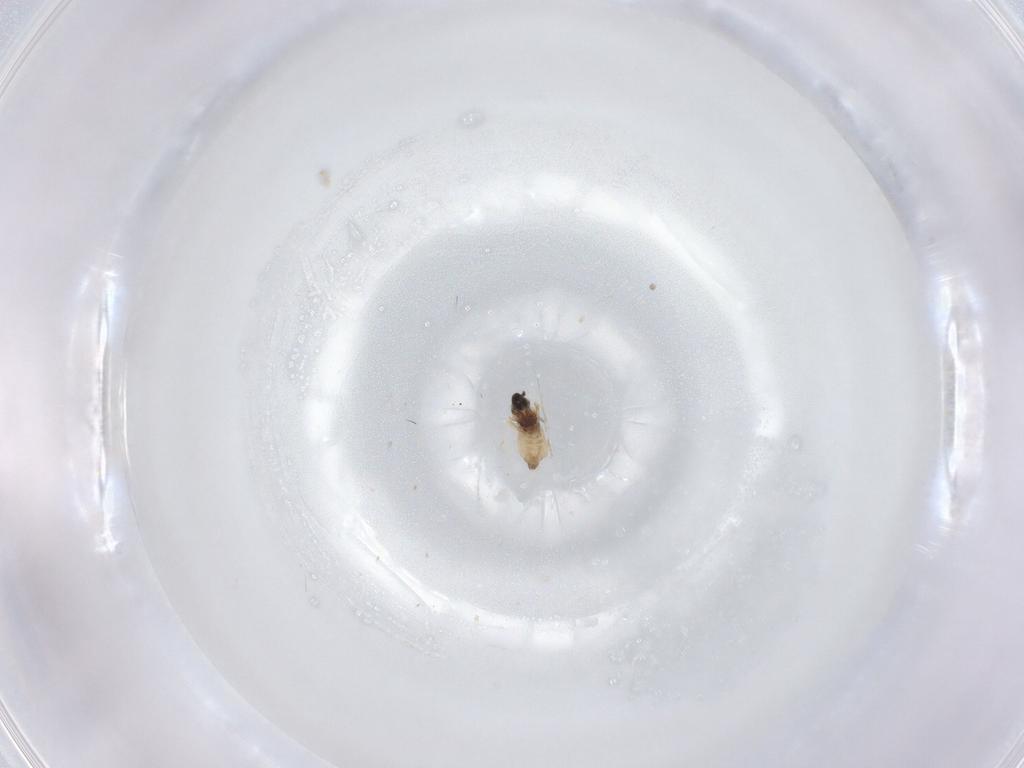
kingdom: Animalia
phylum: Arthropoda
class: Insecta
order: Diptera
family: Cecidomyiidae
